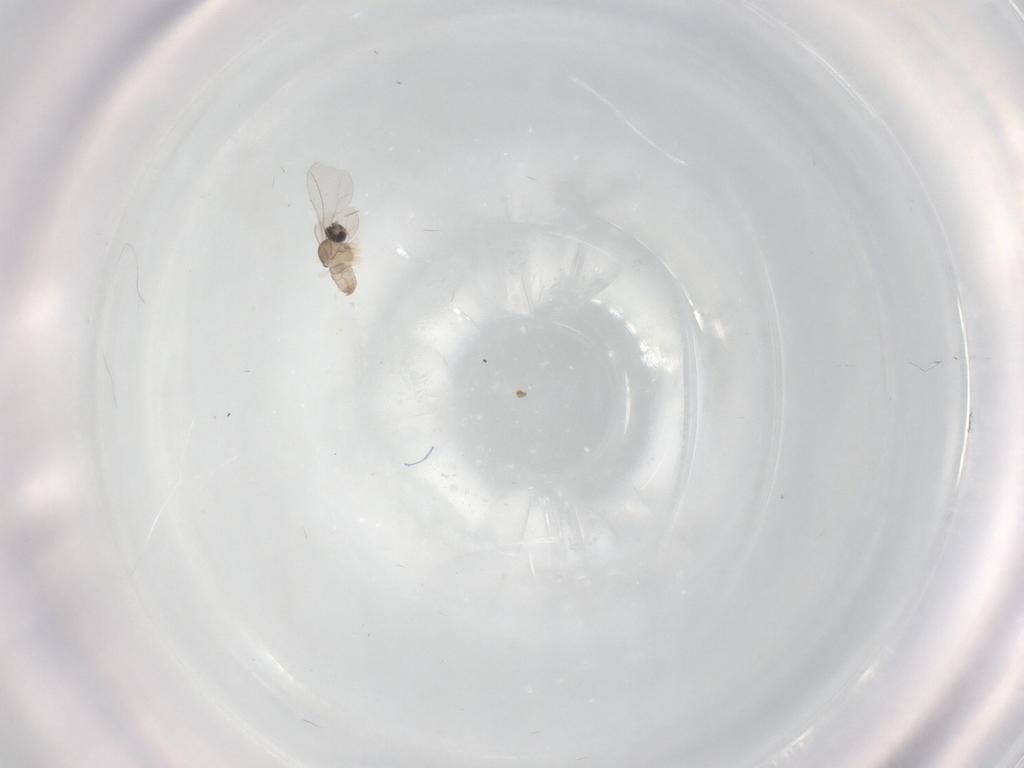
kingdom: Animalia
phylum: Arthropoda
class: Insecta
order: Diptera
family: Cecidomyiidae
